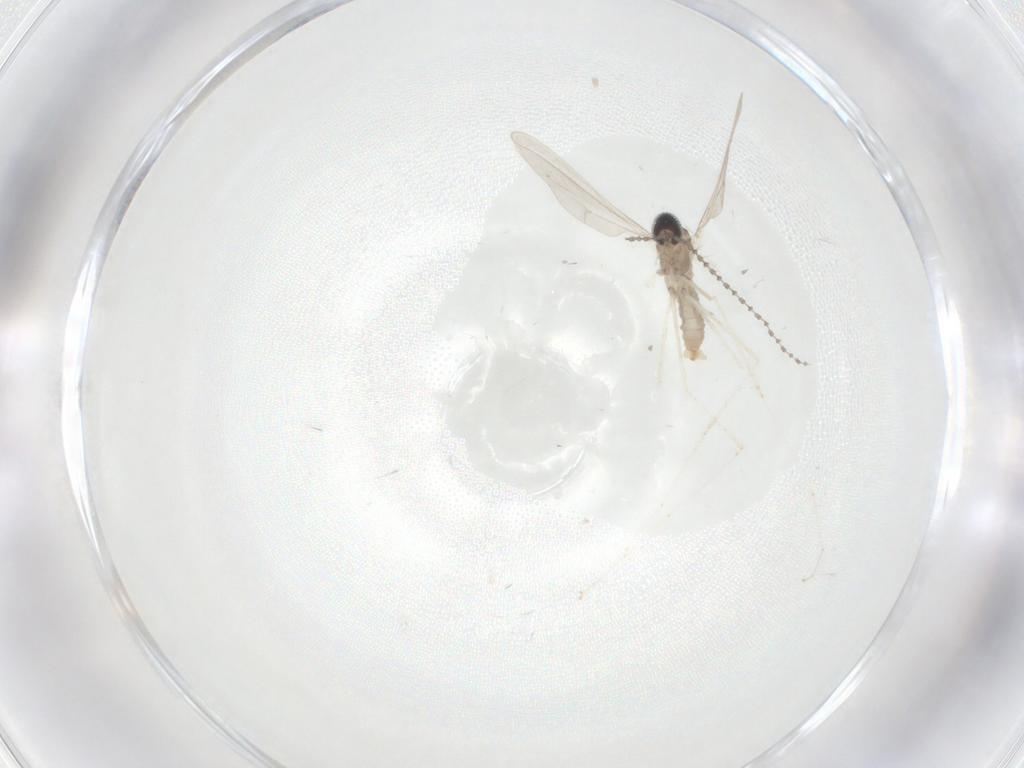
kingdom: Animalia
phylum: Arthropoda
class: Insecta
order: Diptera
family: Cecidomyiidae
